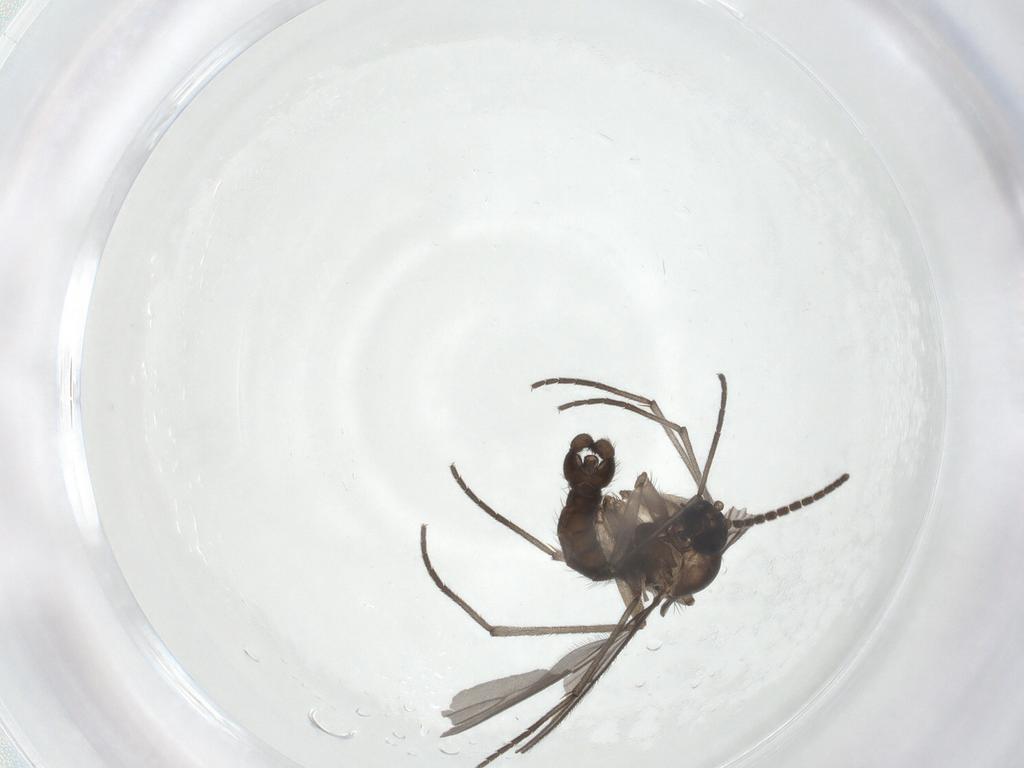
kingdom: Animalia
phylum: Arthropoda
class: Insecta
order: Diptera
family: Sciaridae
